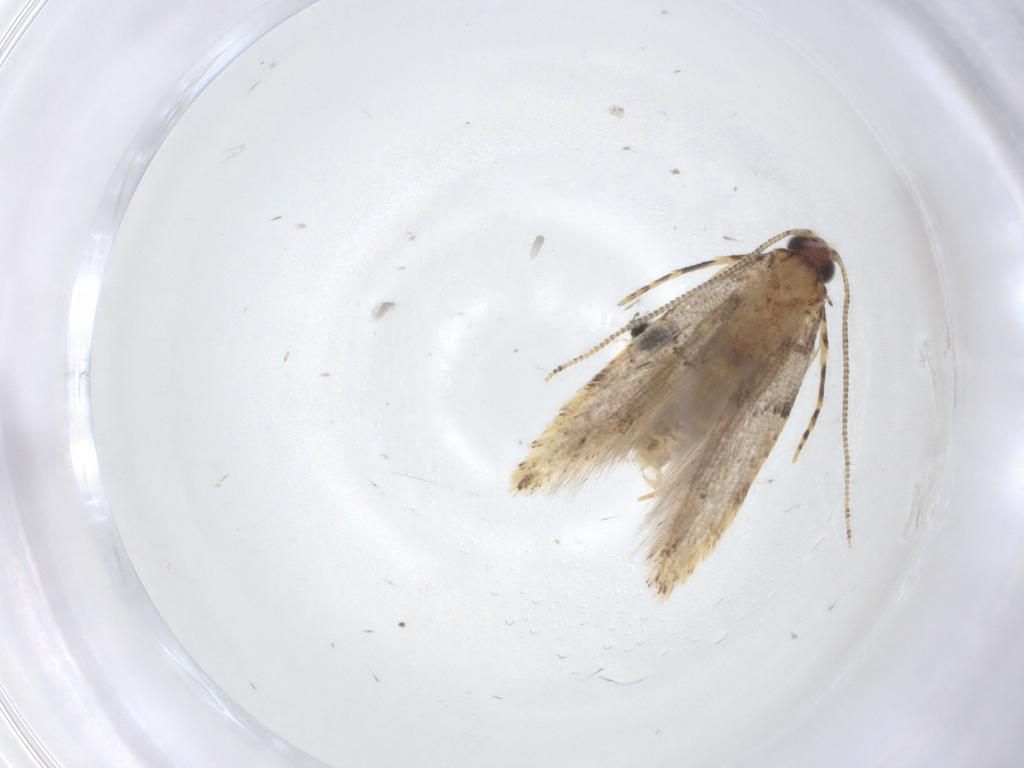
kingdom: Animalia
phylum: Arthropoda
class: Insecta
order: Lepidoptera
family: Tineidae
